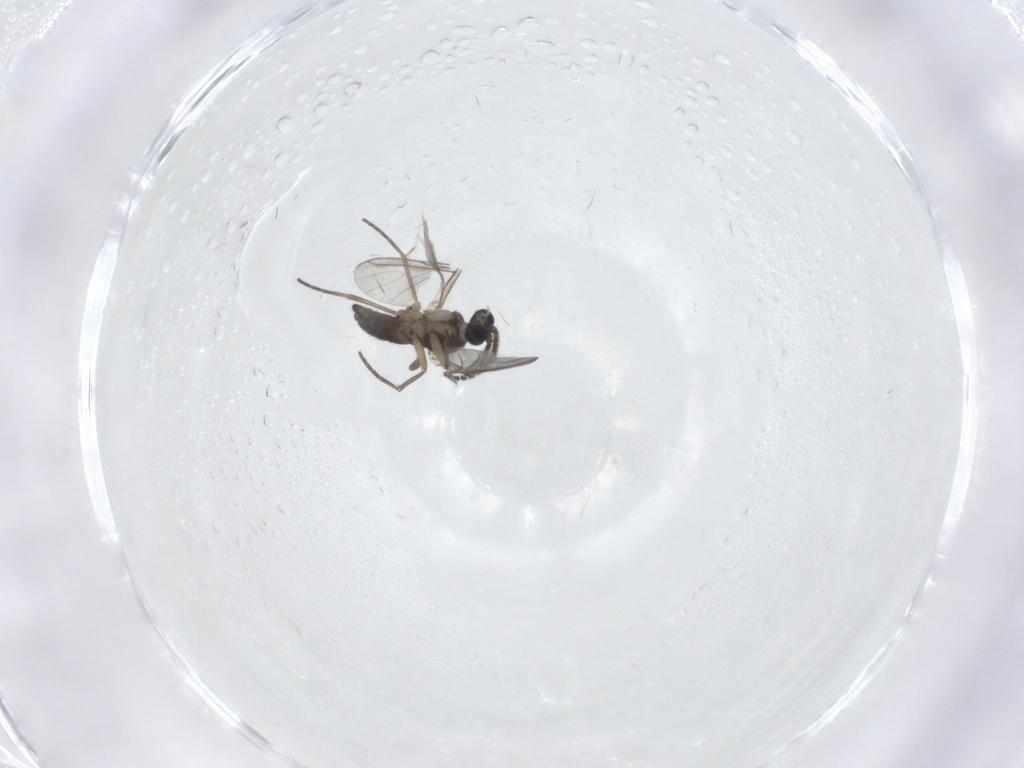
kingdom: Animalia
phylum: Arthropoda
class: Insecta
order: Diptera
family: Sciaridae
